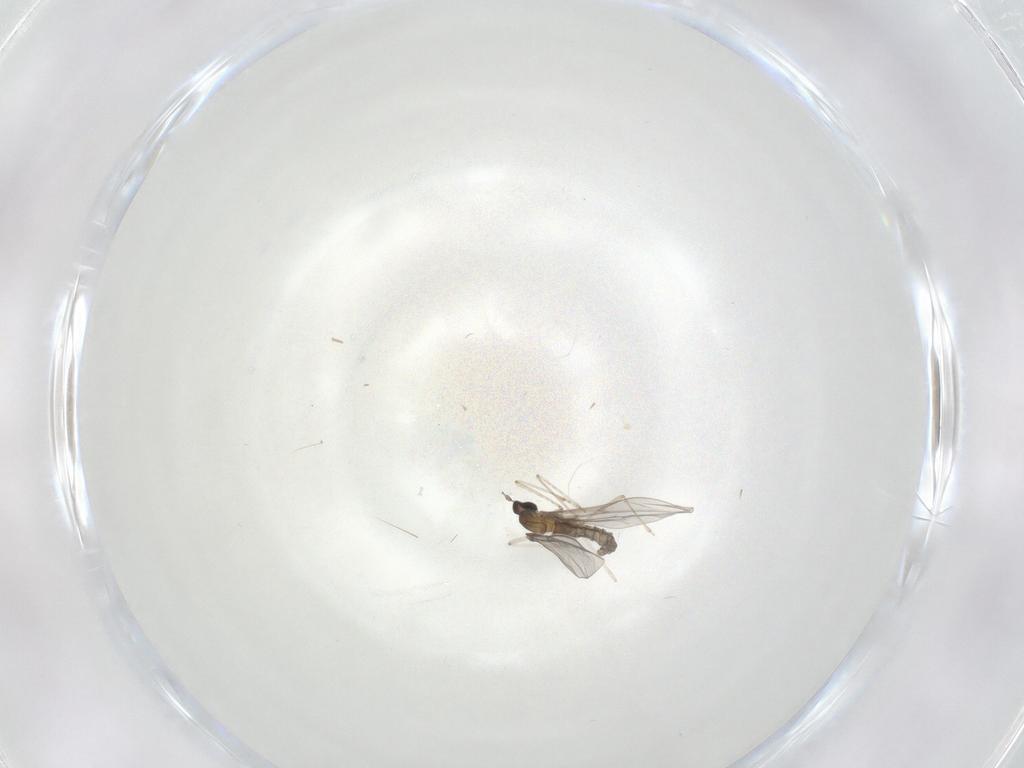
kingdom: Animalia
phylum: Arthropoda
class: Insecta
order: Diptera
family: Cecidomyiidae
